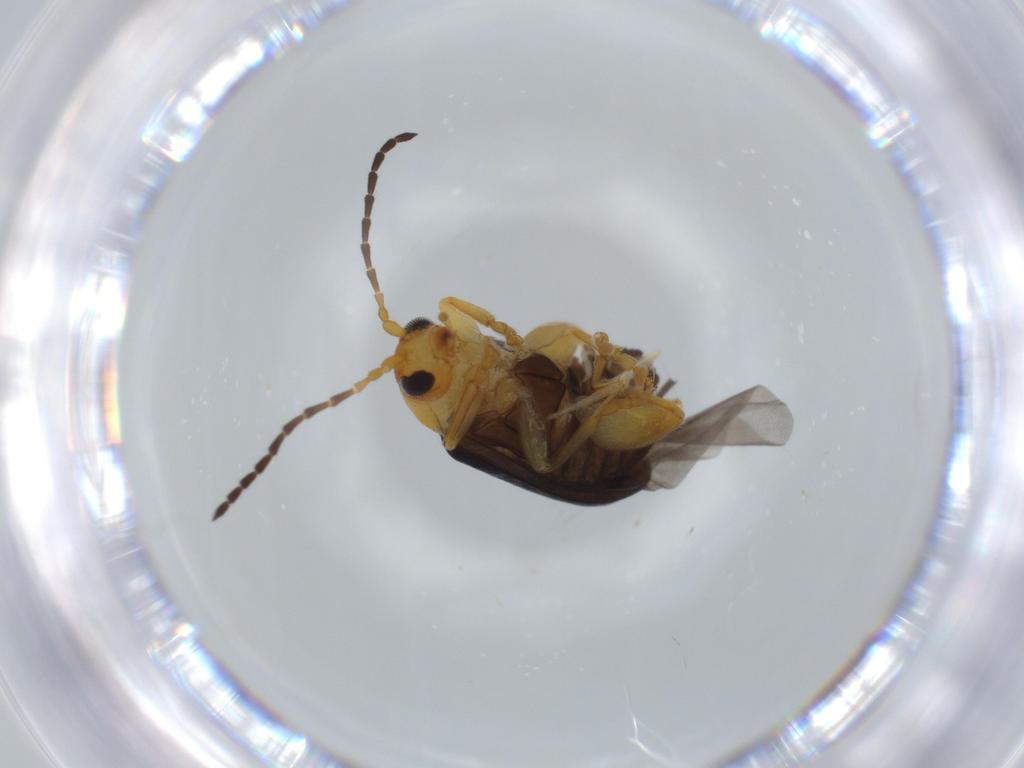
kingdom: Animalia
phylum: Arthropoda
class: Insecta
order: Coleoptera
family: Chrysomelidae
